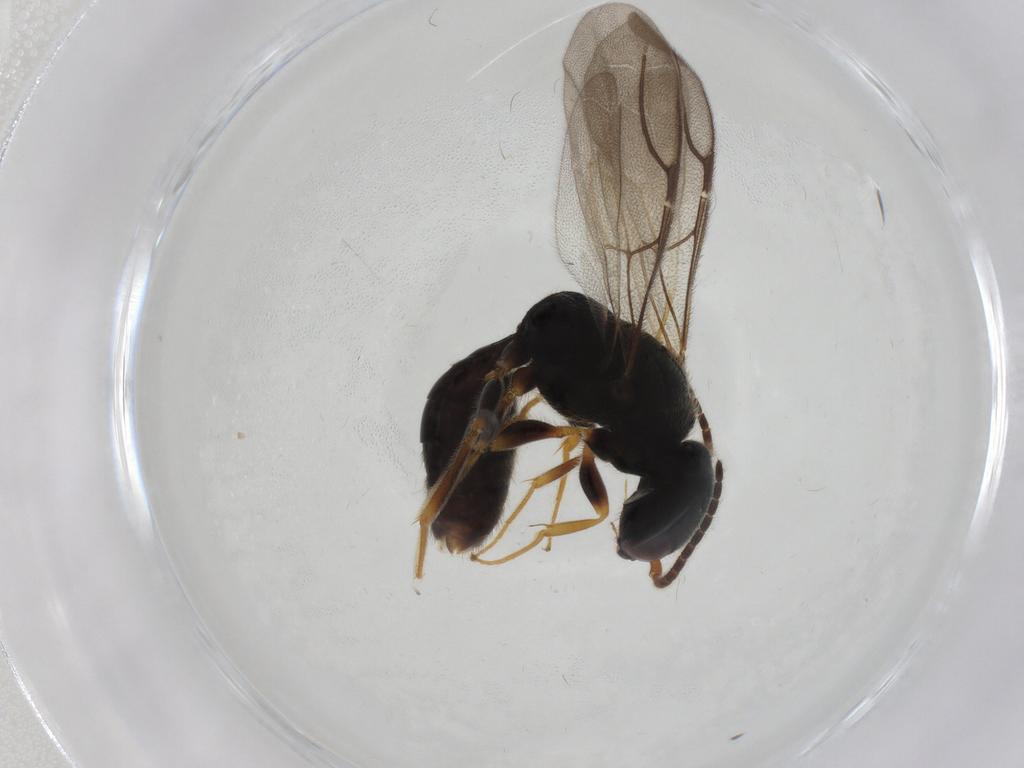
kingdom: Animalia
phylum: Arthropoda
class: Insecta
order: Hymenoptera
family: Bethylidae
